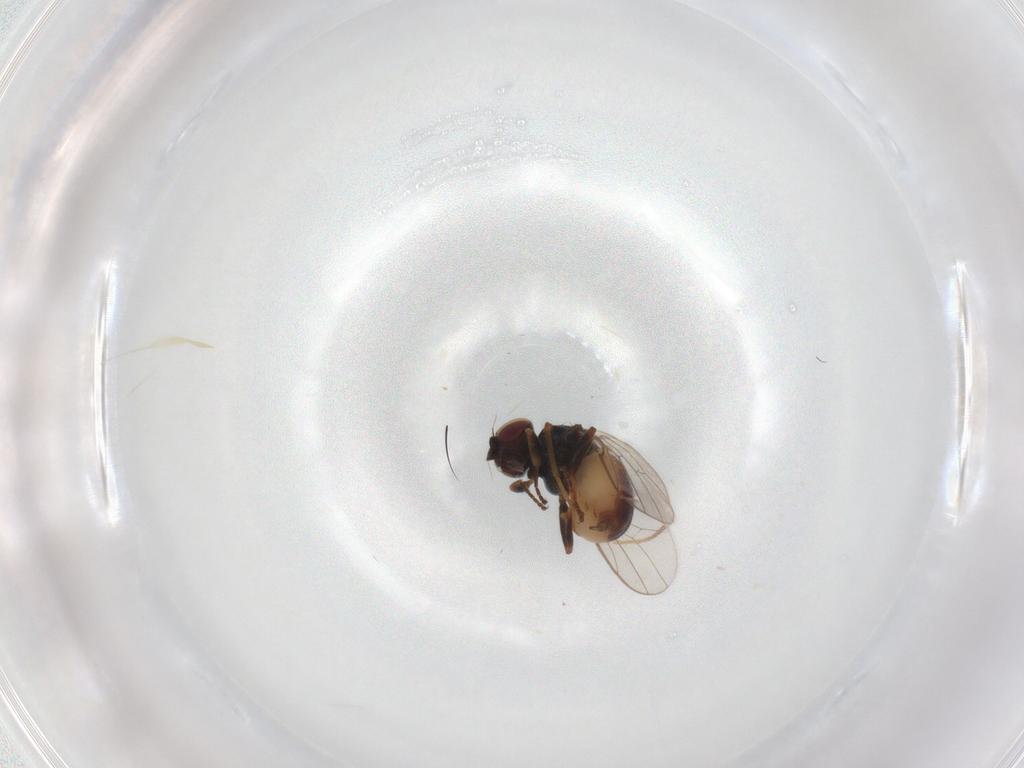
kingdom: Animalia
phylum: Arthropoda
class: Insecta
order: Diptera
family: Chloropidae
